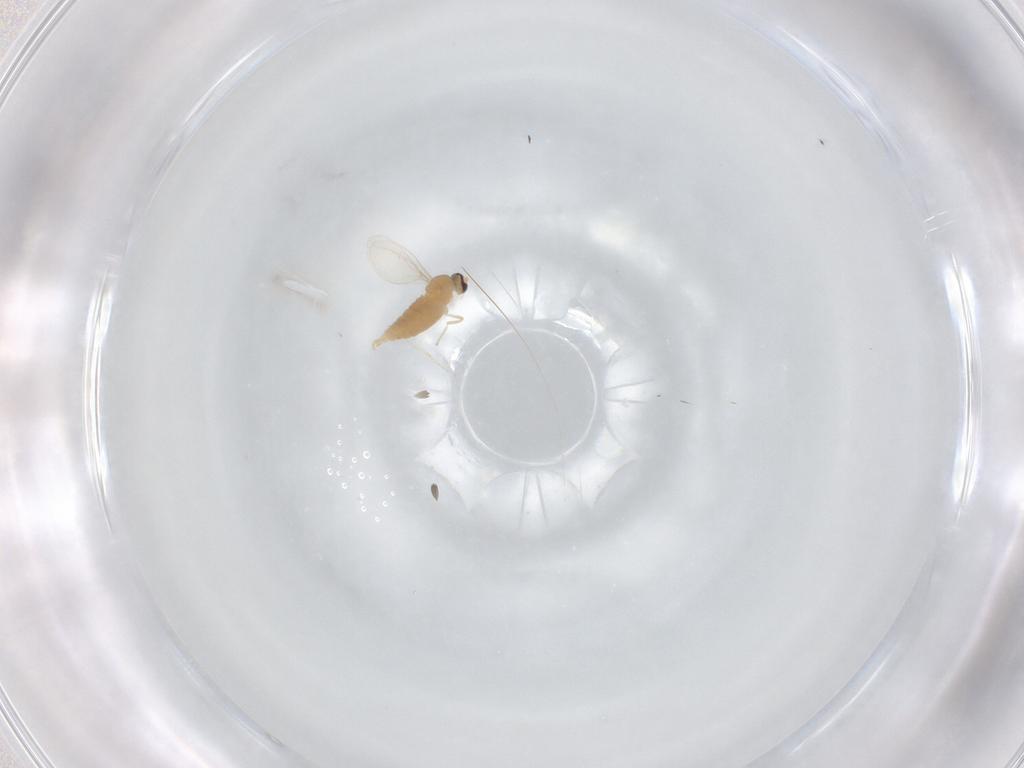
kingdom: Animalia
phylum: Arthropoda
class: Insecta
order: Diptera
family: Cecidomyiidae
